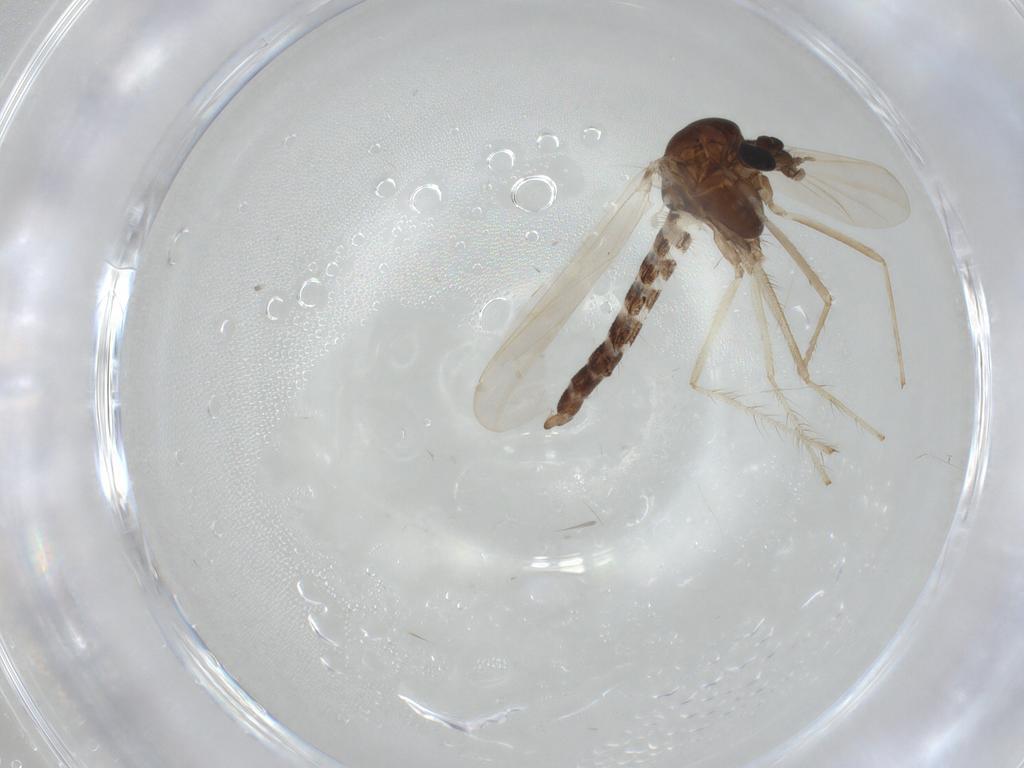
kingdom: Animalia
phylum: Arthropoda
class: Insecta
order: Diptera
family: Chironomidae
